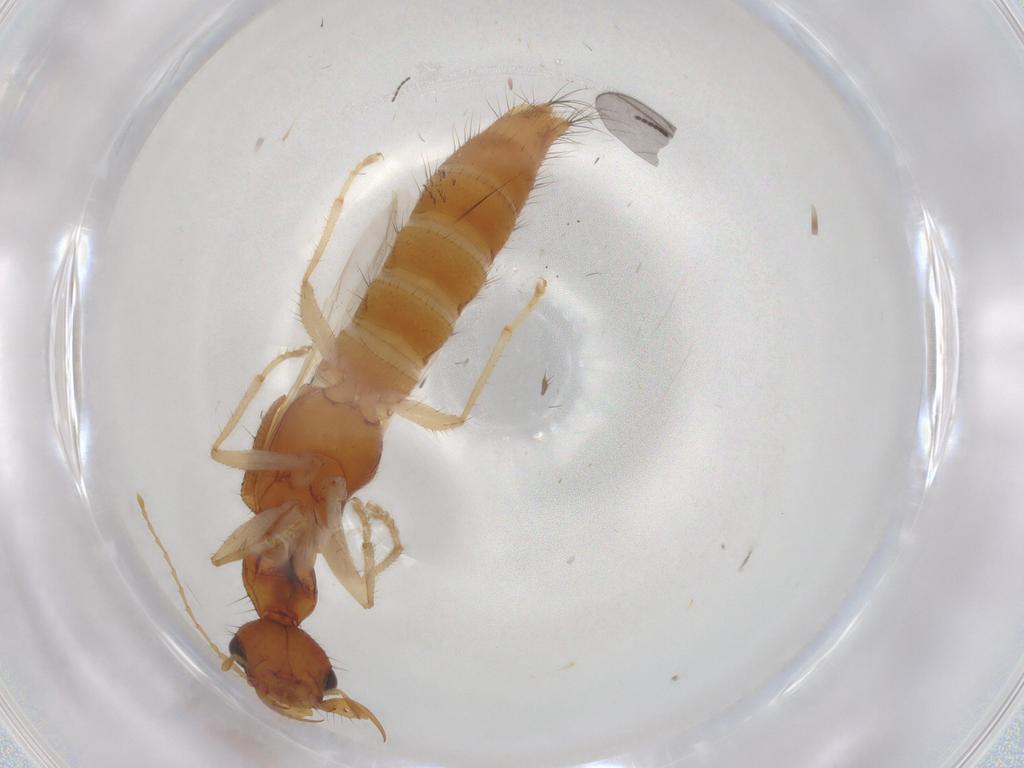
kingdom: Animalia
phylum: Arthropoda
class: Insecta
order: Coleoptera
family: Staphylinidae
